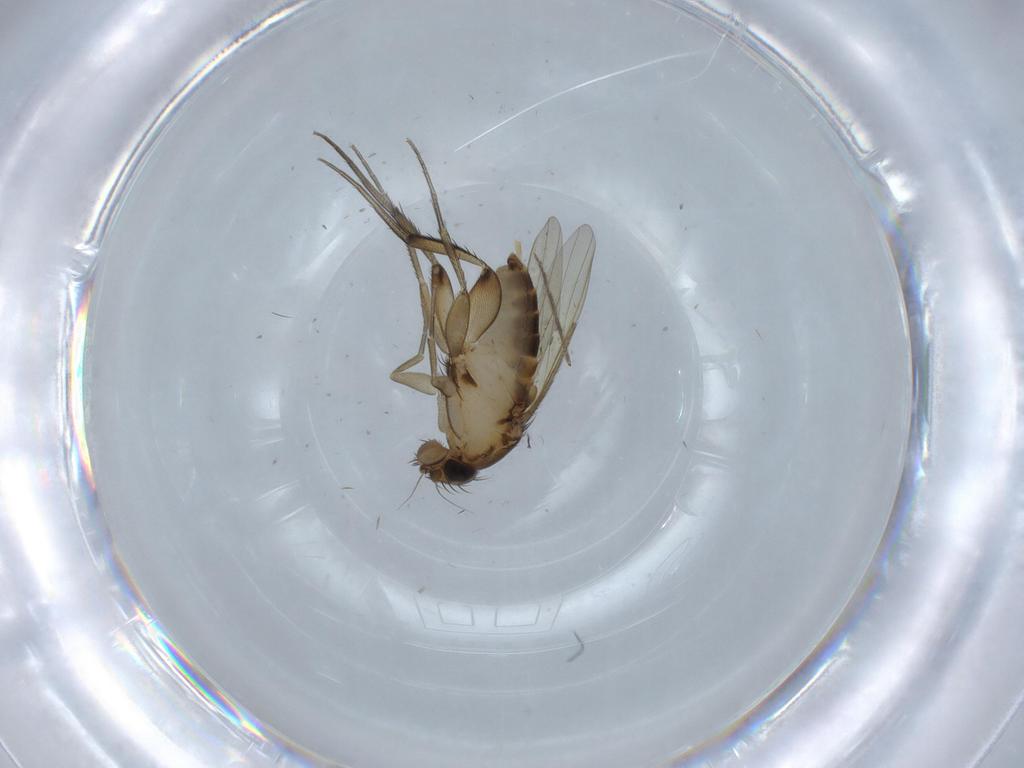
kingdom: Animalia
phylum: Arthropoda
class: Insecta
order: Diptera
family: Phoridae
